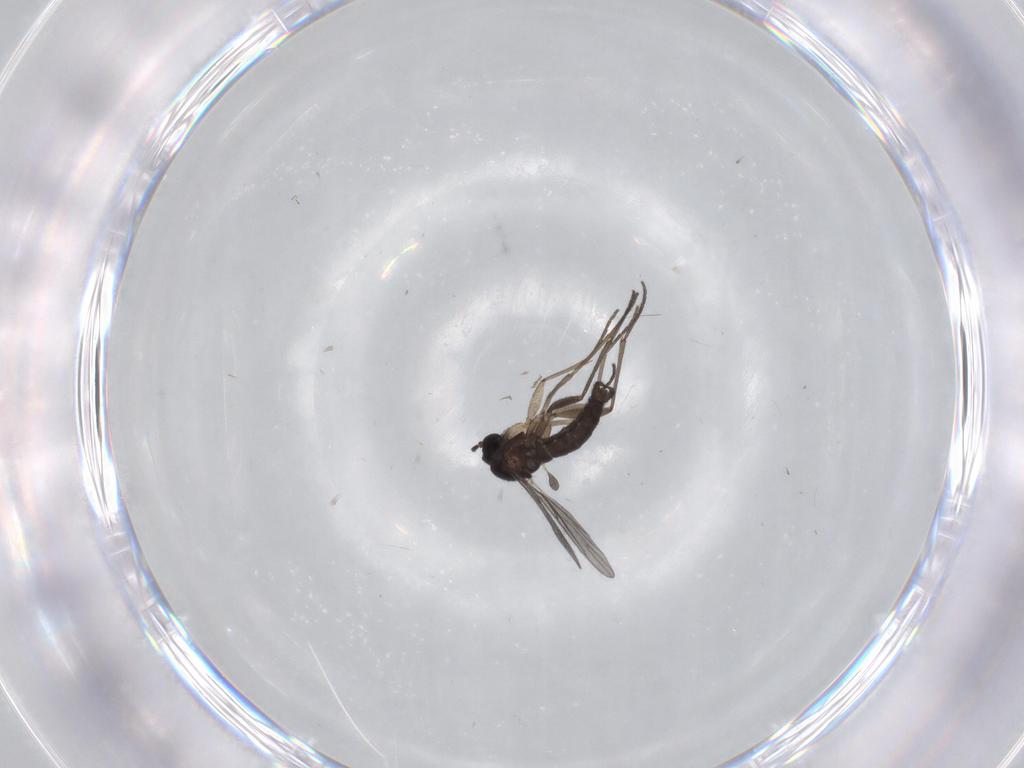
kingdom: Animalia
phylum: Arthropoda
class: Insecta
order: Diptera
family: Sciaridae
